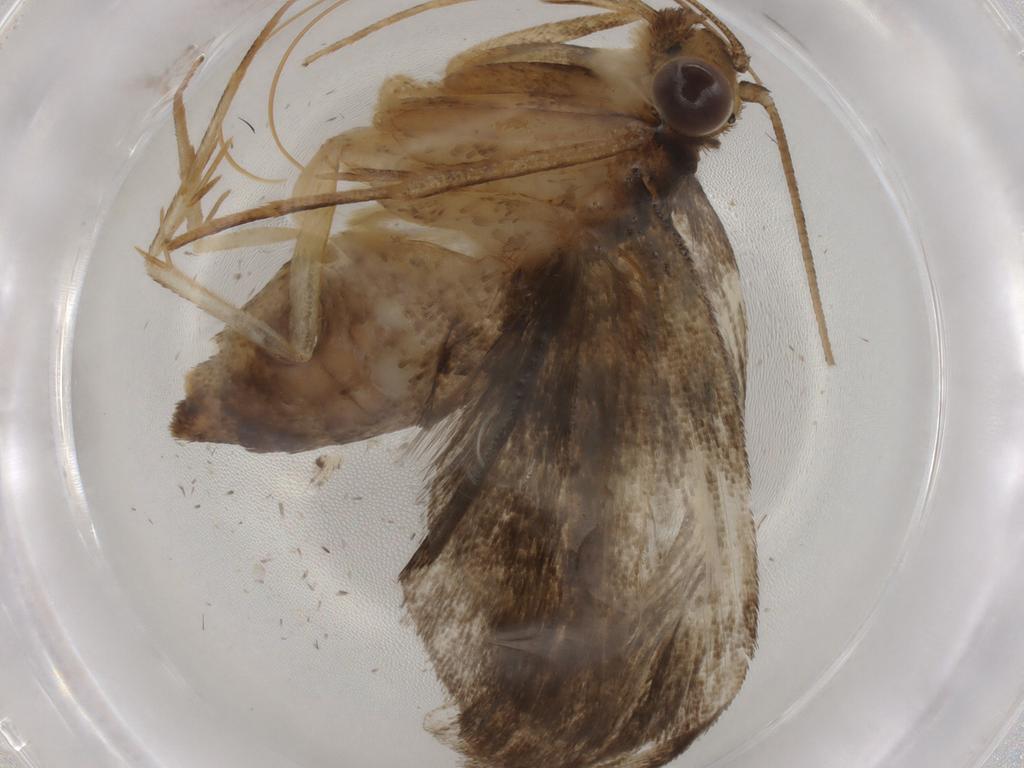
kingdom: Animalia
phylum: Arthropoda
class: Insecta
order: Lepidoptera
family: Crambidae
